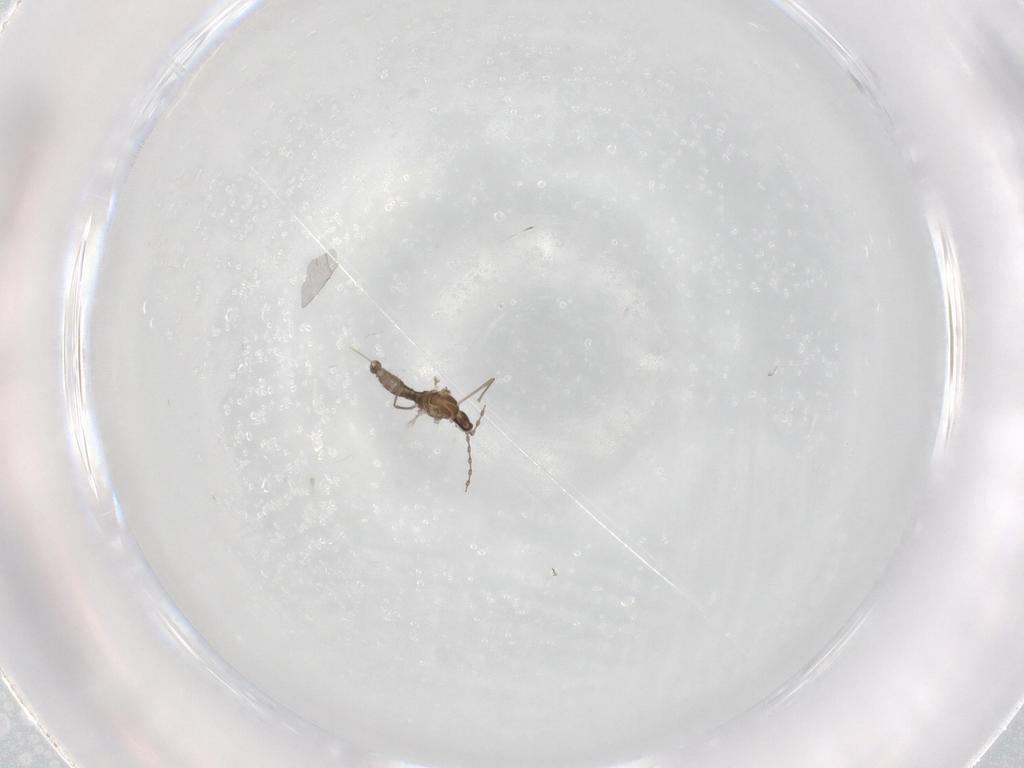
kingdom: Animalia
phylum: Arthropoda
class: Insecta
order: Diptera
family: Cecidomyiidae
